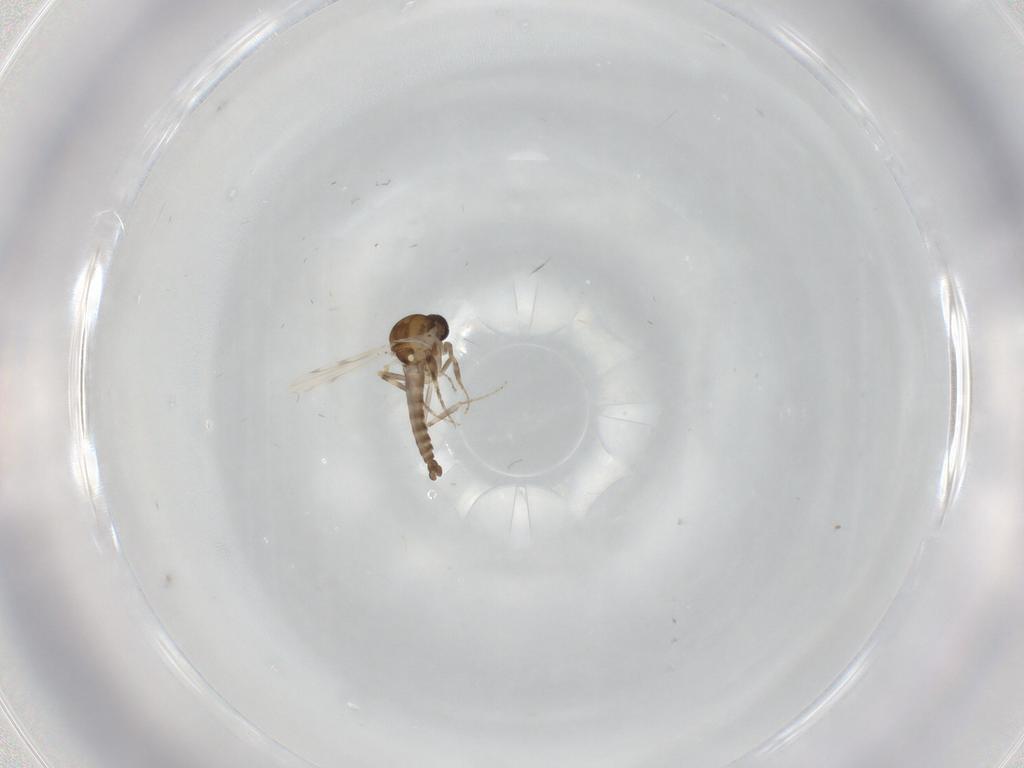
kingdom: Animalia
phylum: Arthropoda
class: Insecta
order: Diptera
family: Ceratopogonidae
